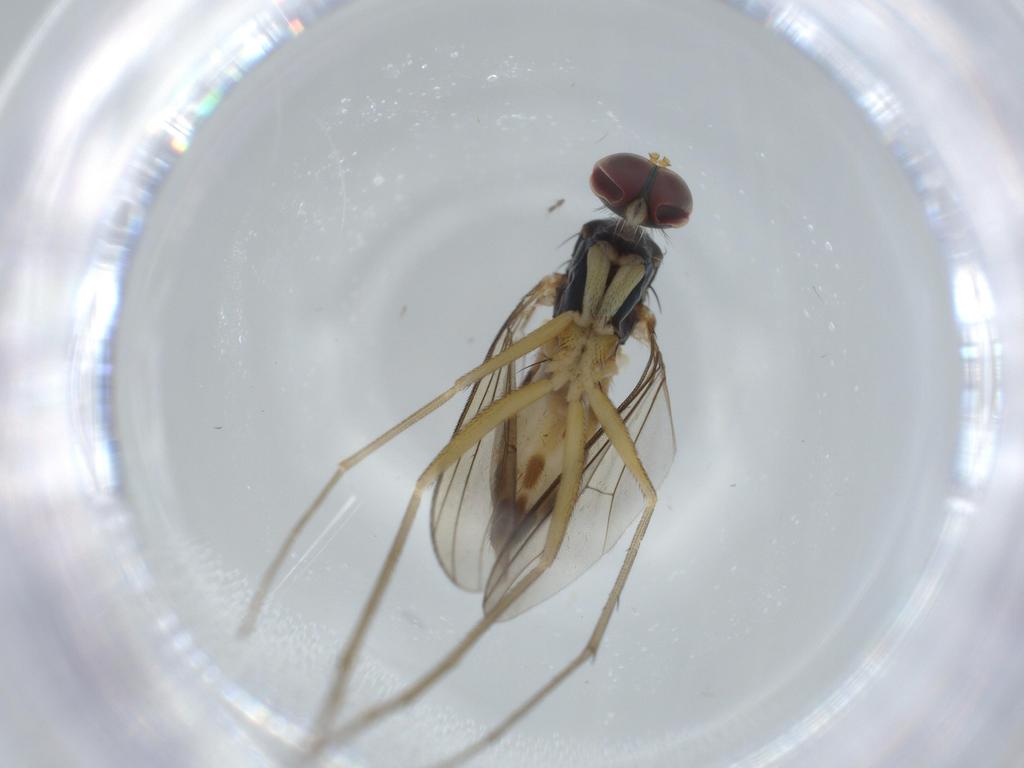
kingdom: Animalia
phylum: Arthropoda
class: Insecta
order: Diptera
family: Dolichopodidae
